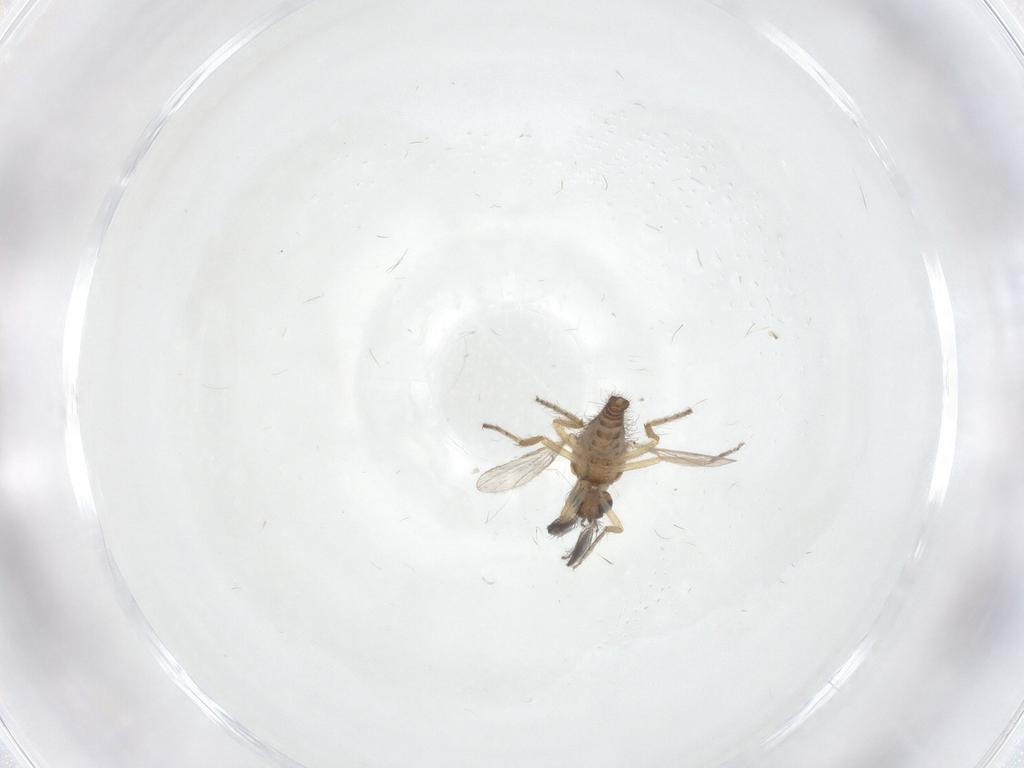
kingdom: Animalia
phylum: Arthropoda
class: Insecta
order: Diptera
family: Ceratopogonidae
